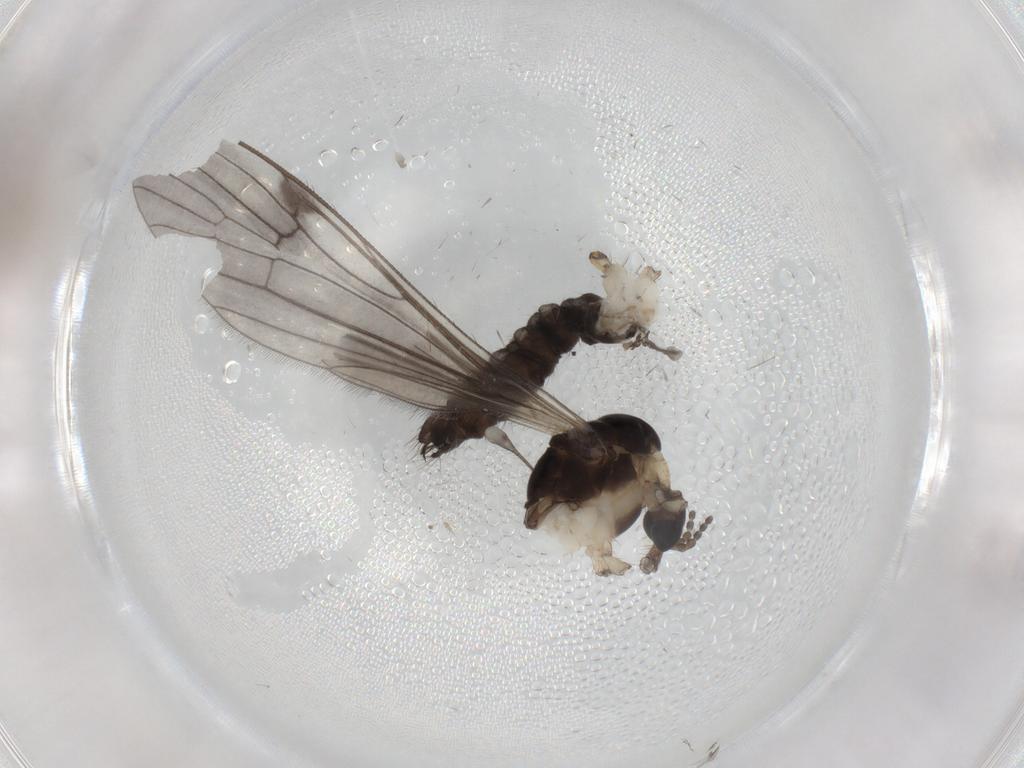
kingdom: Animalia
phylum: Arthropoda
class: Insecta
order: Diptera
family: Limoniidae
